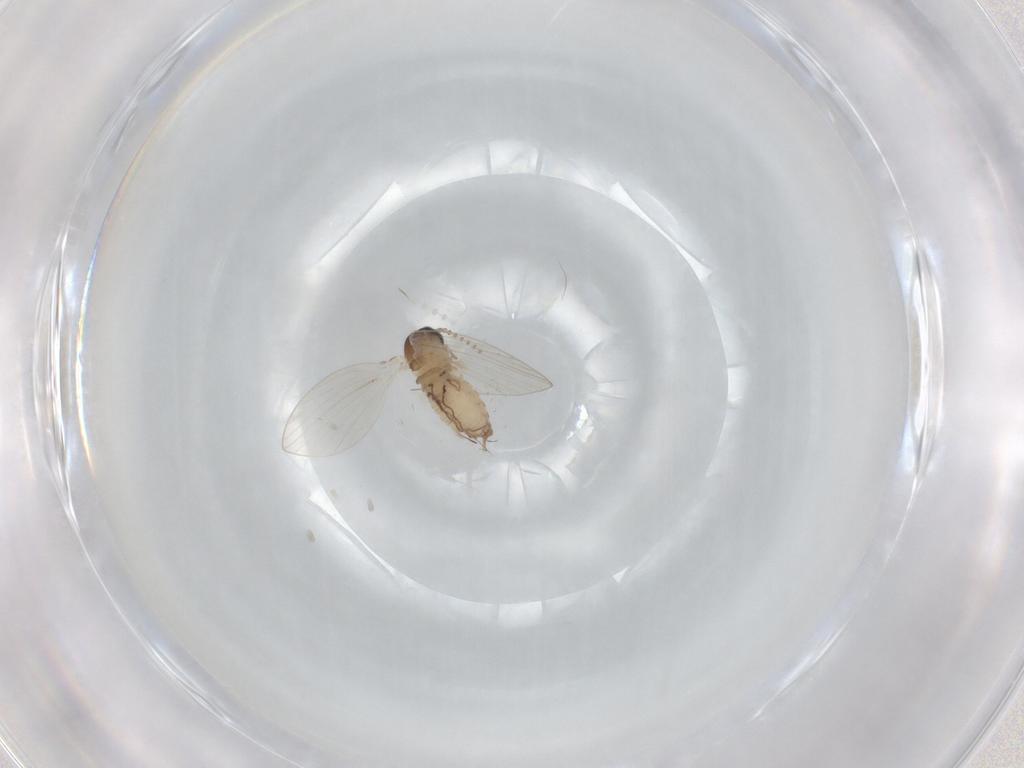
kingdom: Animalia
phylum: Arthropoda
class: Insecta
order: Diptera
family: Psychodidae
